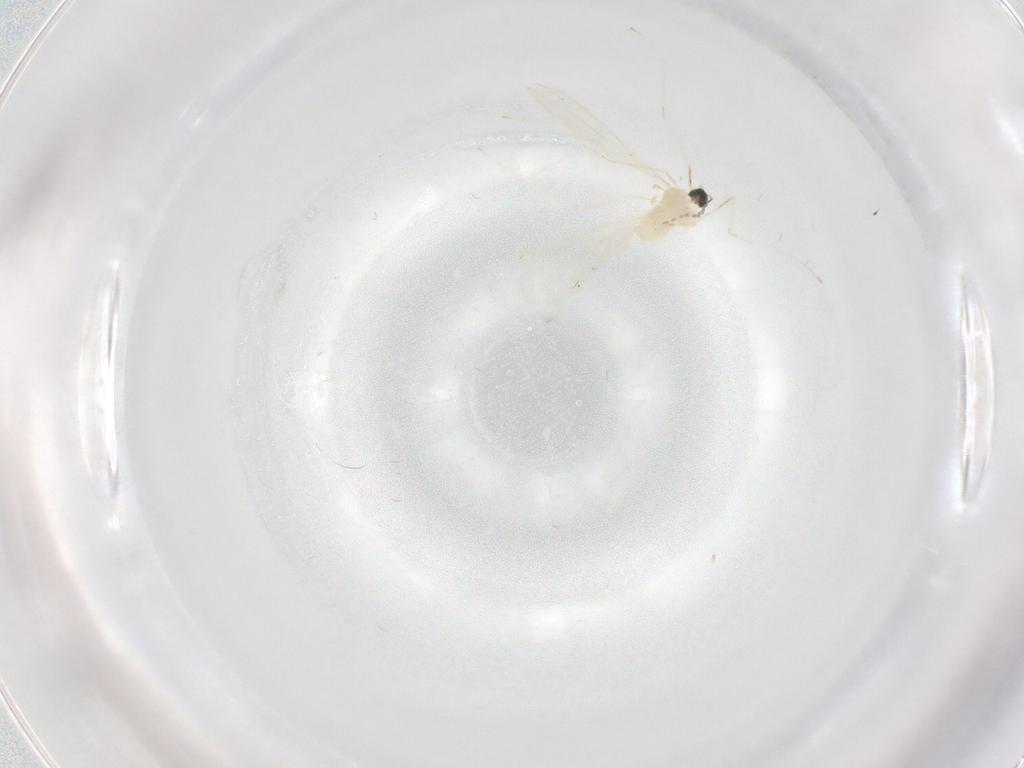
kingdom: Animalia
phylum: Arthropoda
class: Insecta
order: Diptera
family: Cecidomyiidae
